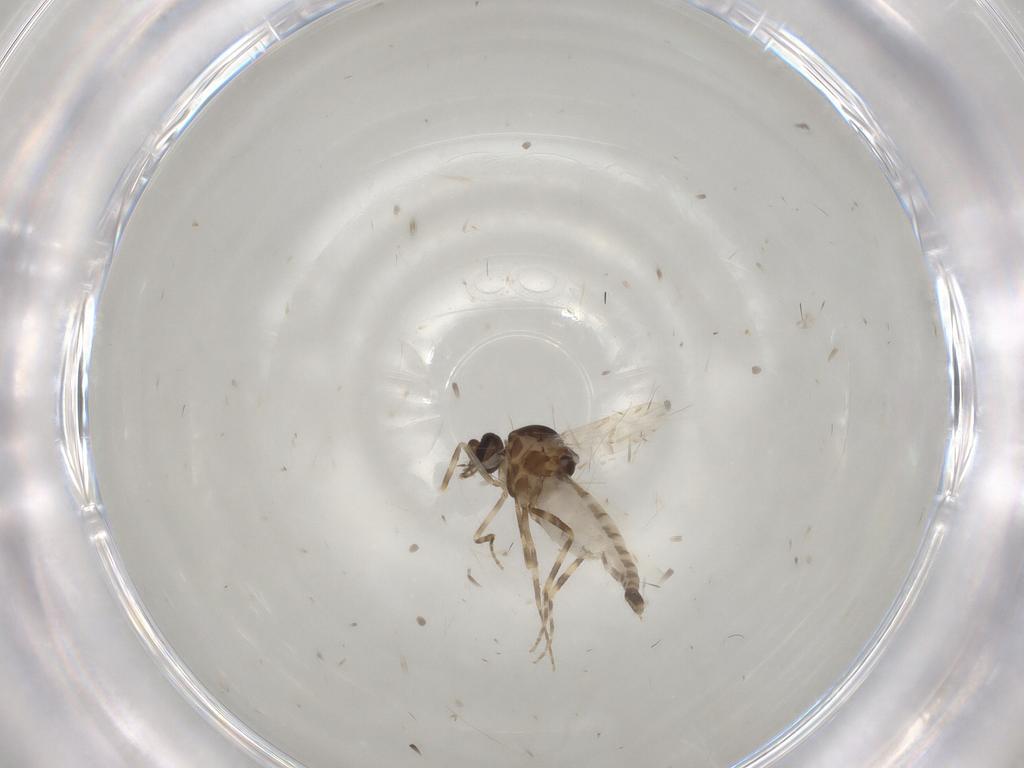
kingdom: Animalia
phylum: Arthropoda
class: Insecta
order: Diptera
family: Ceratopogonidae
